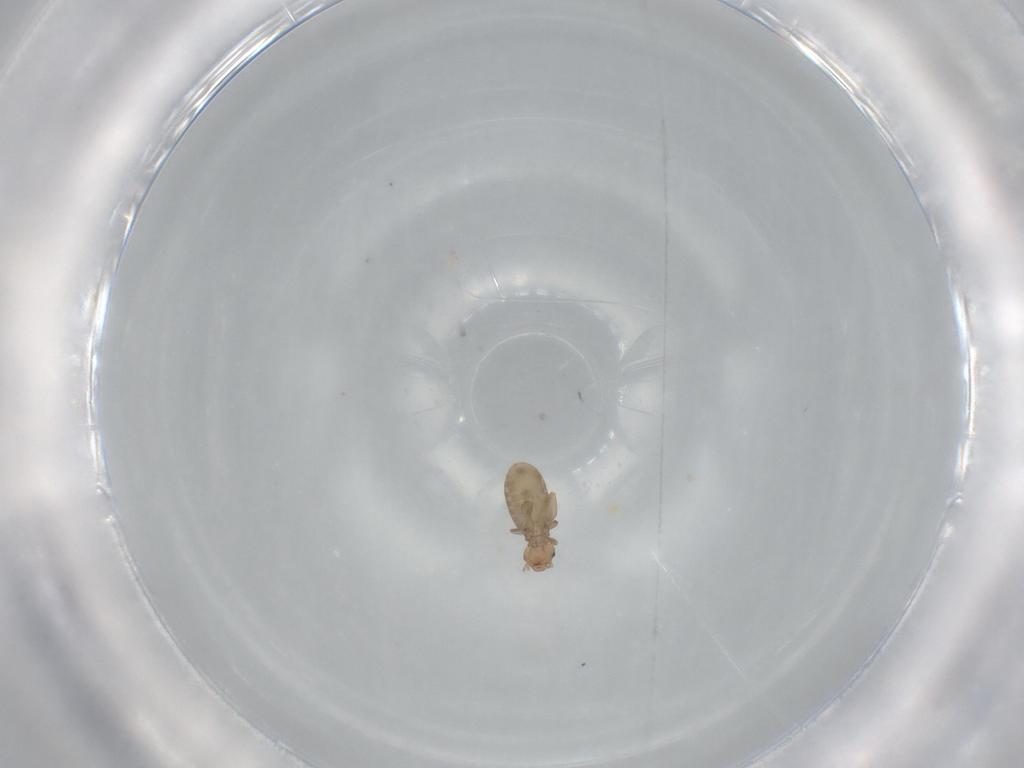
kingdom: Animalia
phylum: Arthropoda
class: Insecta
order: Psocodea
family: Liposcelididae
